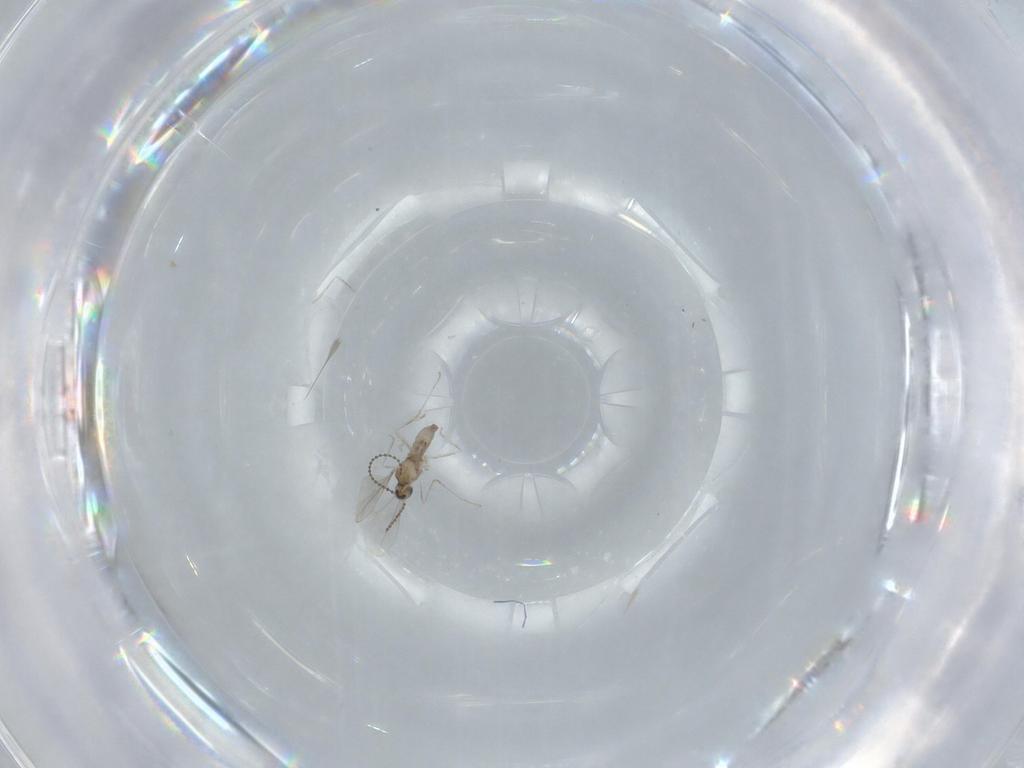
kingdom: Animalia
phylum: Arthropoda
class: Insecta
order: Diptera
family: Cecidomyiidae
